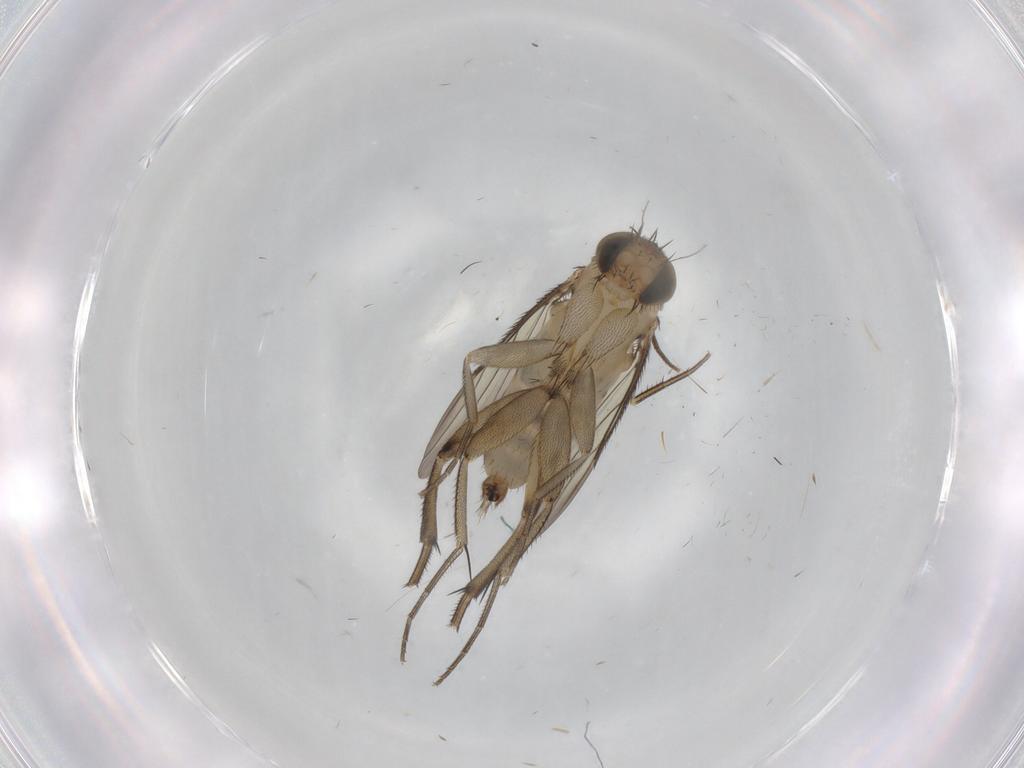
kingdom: Animalia
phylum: Arthropoda
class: Insecta
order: Diptera
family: Phoridae
